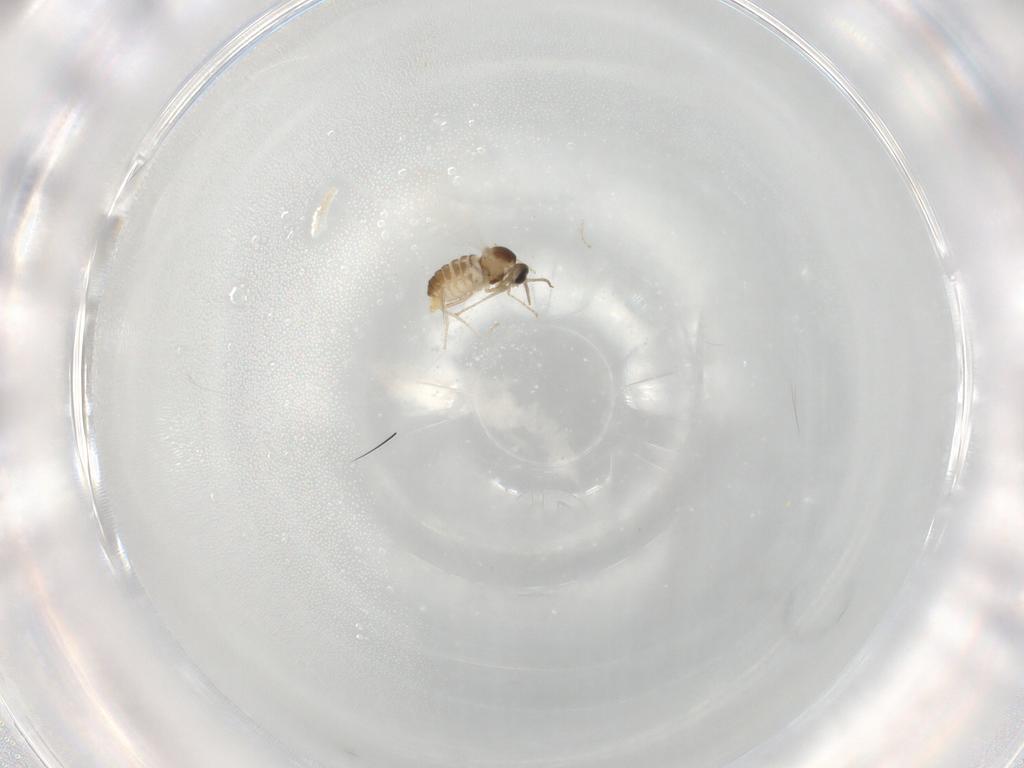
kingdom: Animalia
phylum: Arthropoda
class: Insecta
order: Diptera
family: Cecidomyiidae
